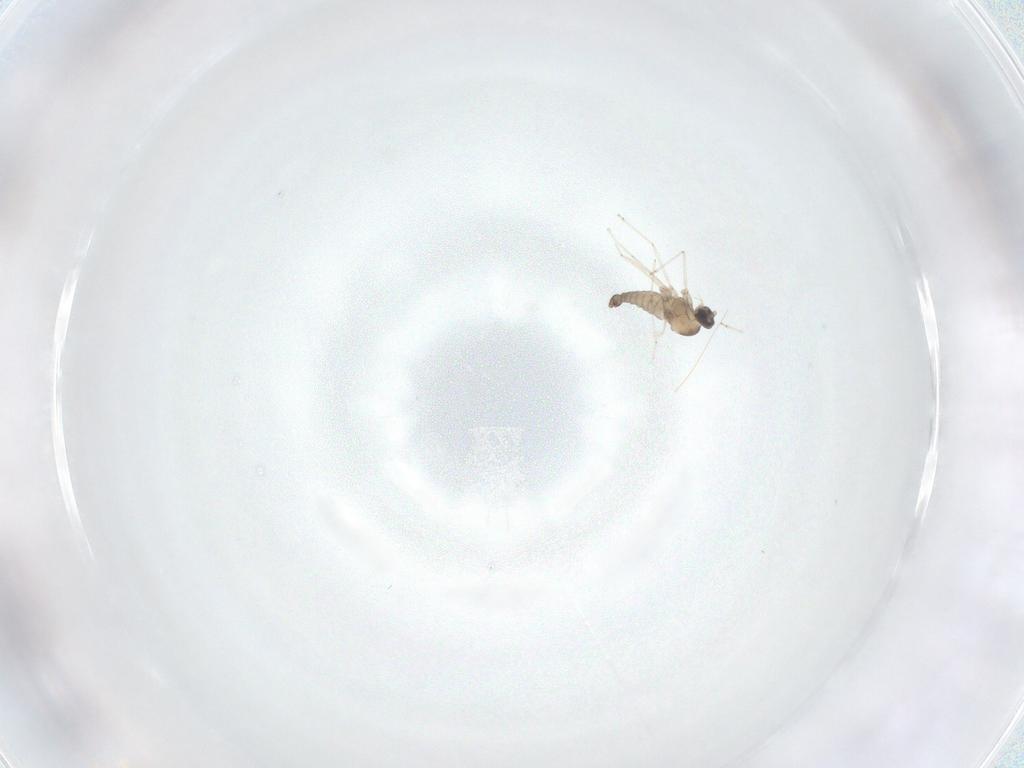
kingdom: Animalia
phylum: Arthropoda
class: Insecta
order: Diptera
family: Cecidomyiidae
